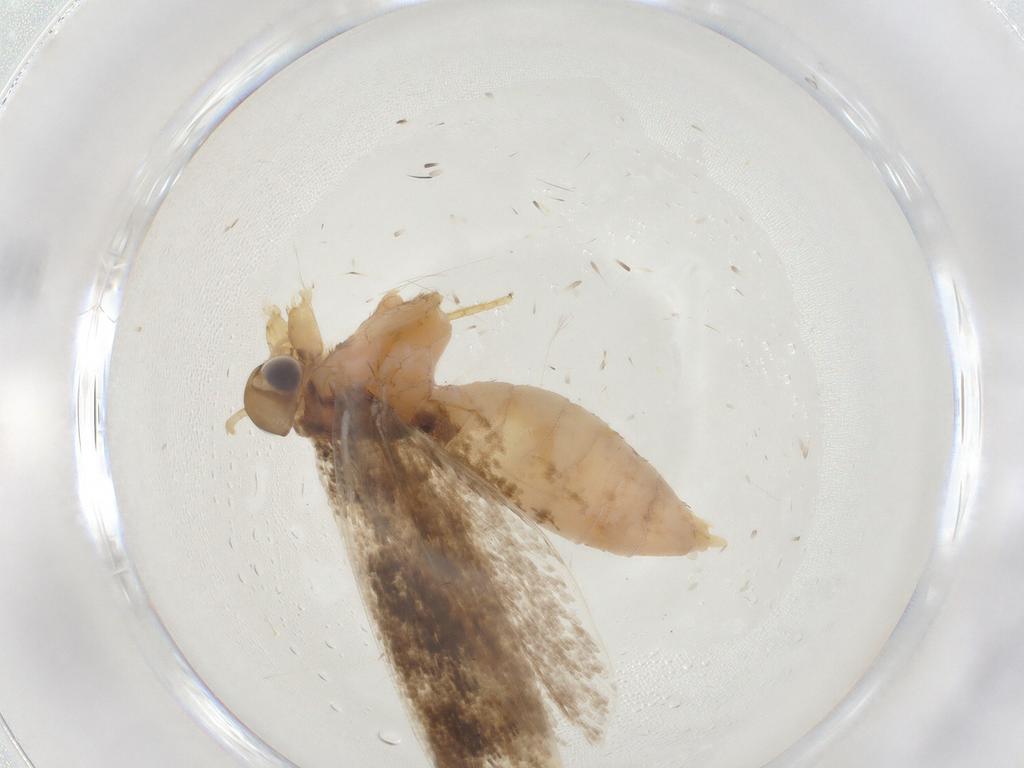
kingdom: Animalia
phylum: Arthropoda
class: Insecta
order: Lepidoptera
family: Gelechiidae
